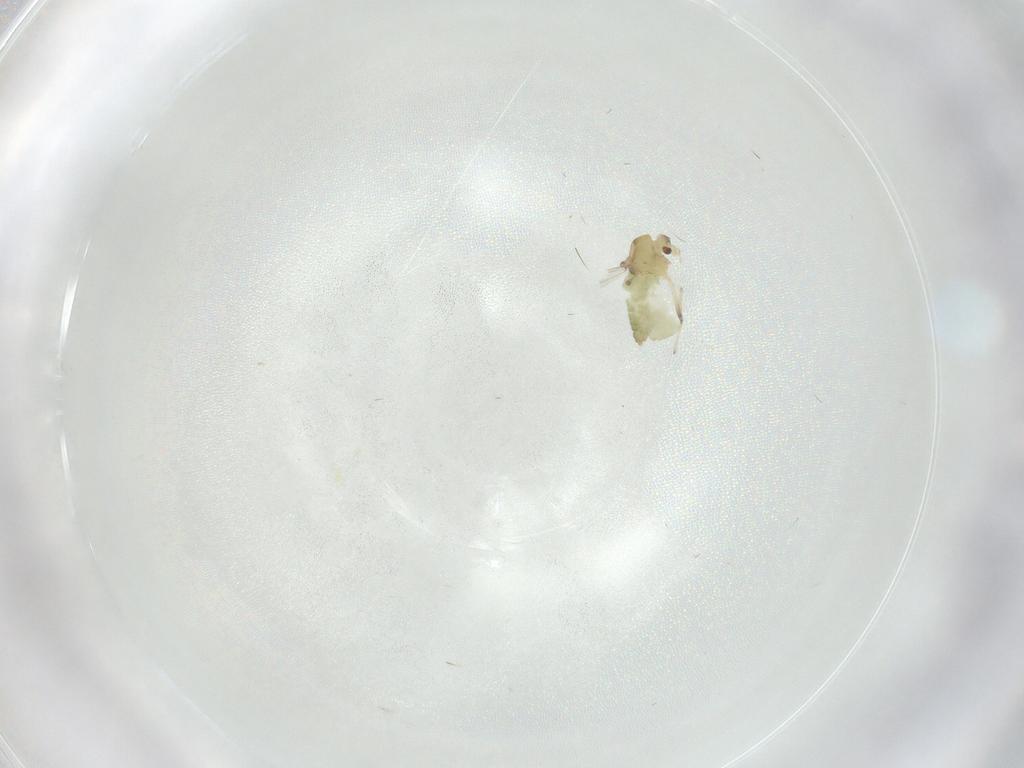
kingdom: Animalia
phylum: Arthropoda
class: Insecta
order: Diptera
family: Chironomidae
